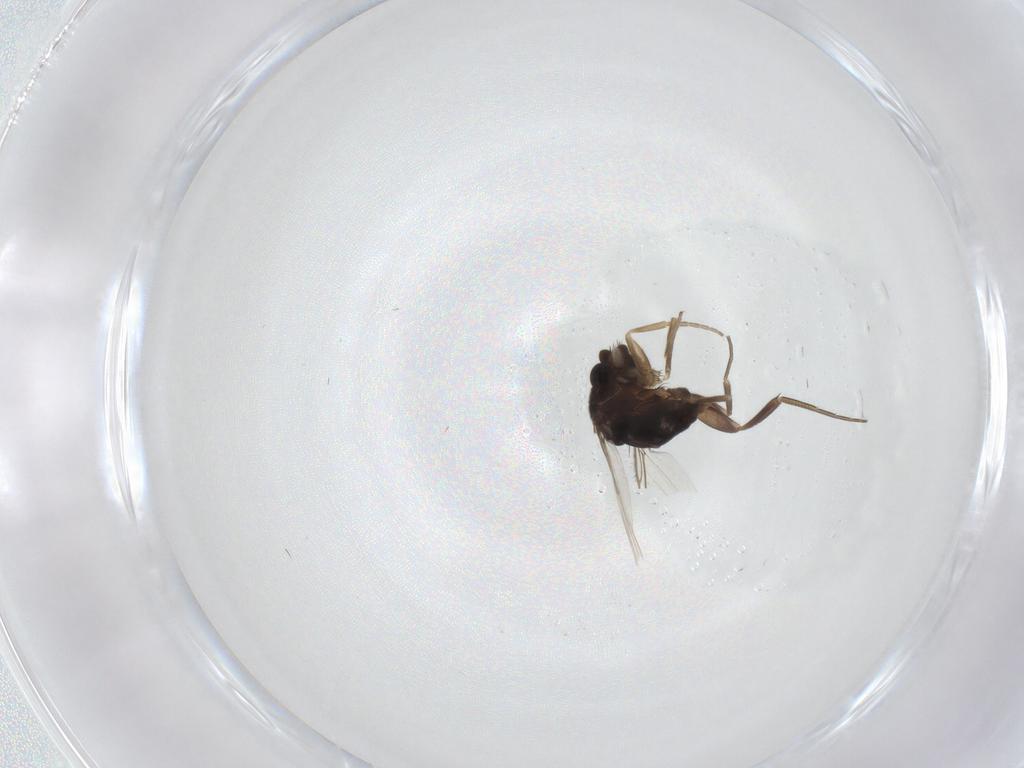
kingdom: Animalia
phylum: Arthropoda
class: Insecta
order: Diptera
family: Phoridae
